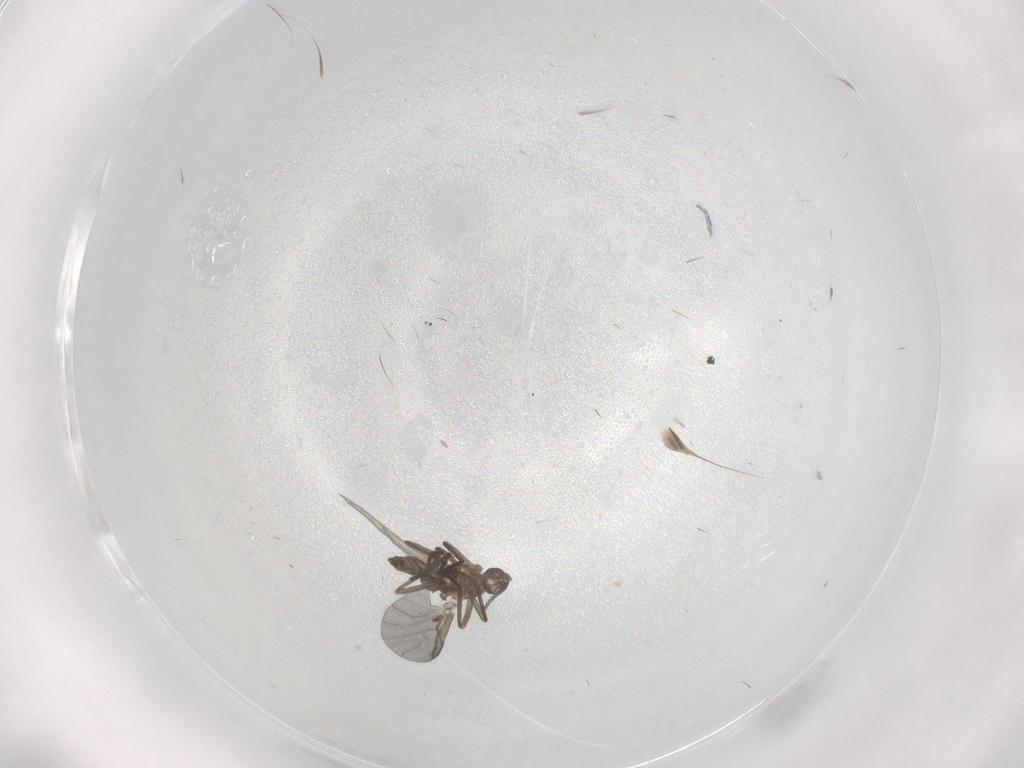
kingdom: Animalia
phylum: Arthropoda
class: Insecta
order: Diptera
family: Cecidomyiidae
